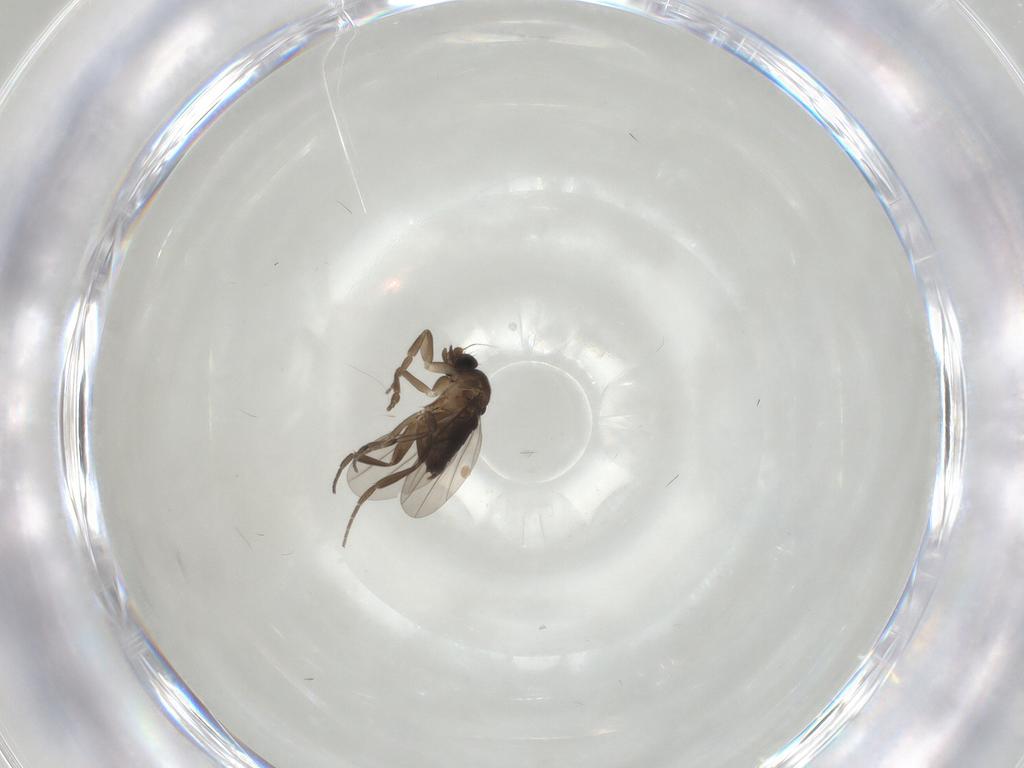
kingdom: Animalia
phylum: Arthropoda
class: Insecta
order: Diptera
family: Phoridae
